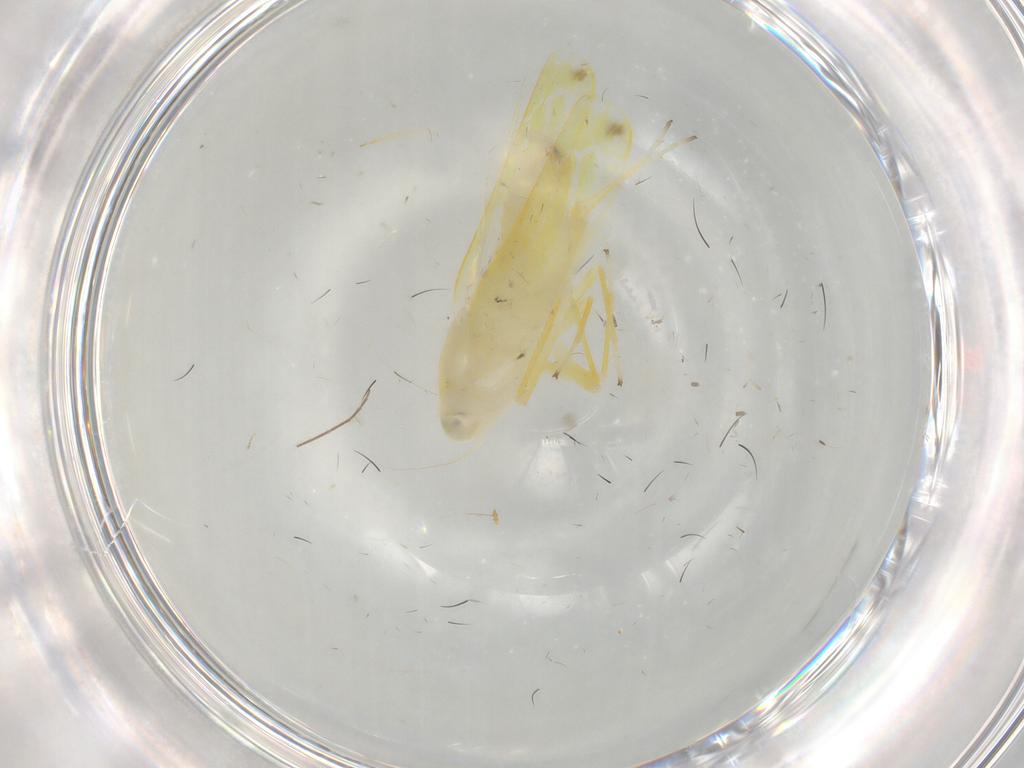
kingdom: Animalia
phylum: Arthropoda
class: Insecta
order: Hemiptera
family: Cicadellidae
